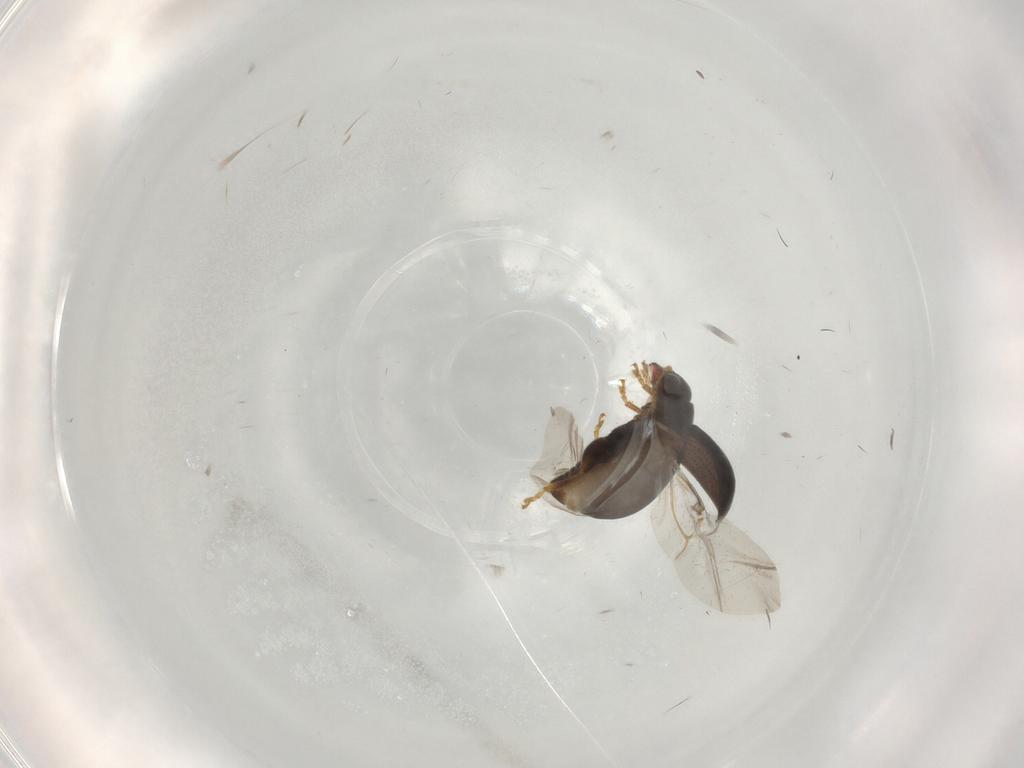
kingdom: Animalia
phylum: Arthropoda
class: Insecta
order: Coleoptera
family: Chrysomelidae
